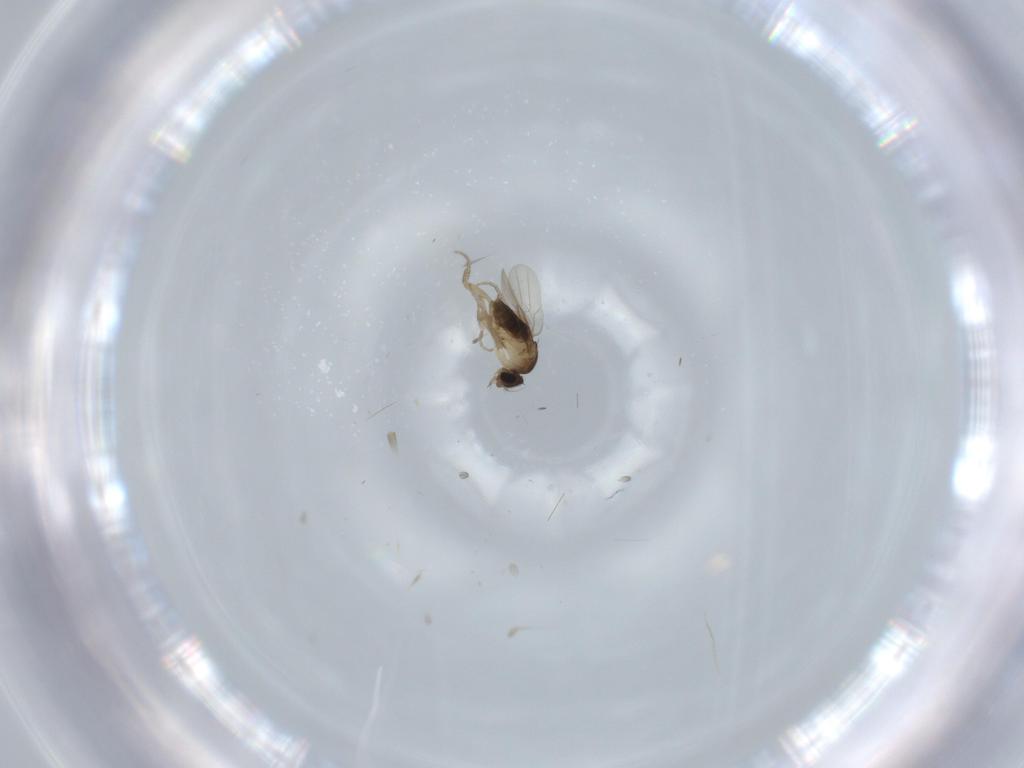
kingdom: Animalia
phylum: Arthropoda
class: Insecta
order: Diptera
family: Phoridae
